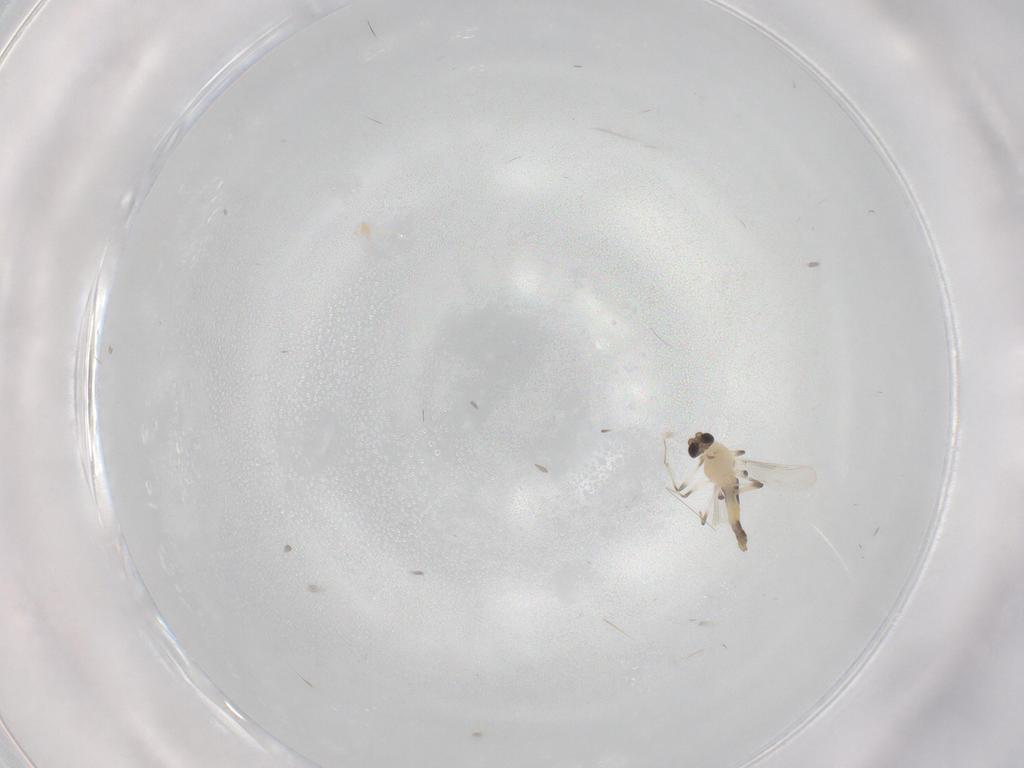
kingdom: Animalia
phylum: Arthropoda
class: Insecta
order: Diptera
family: Chironomidae
